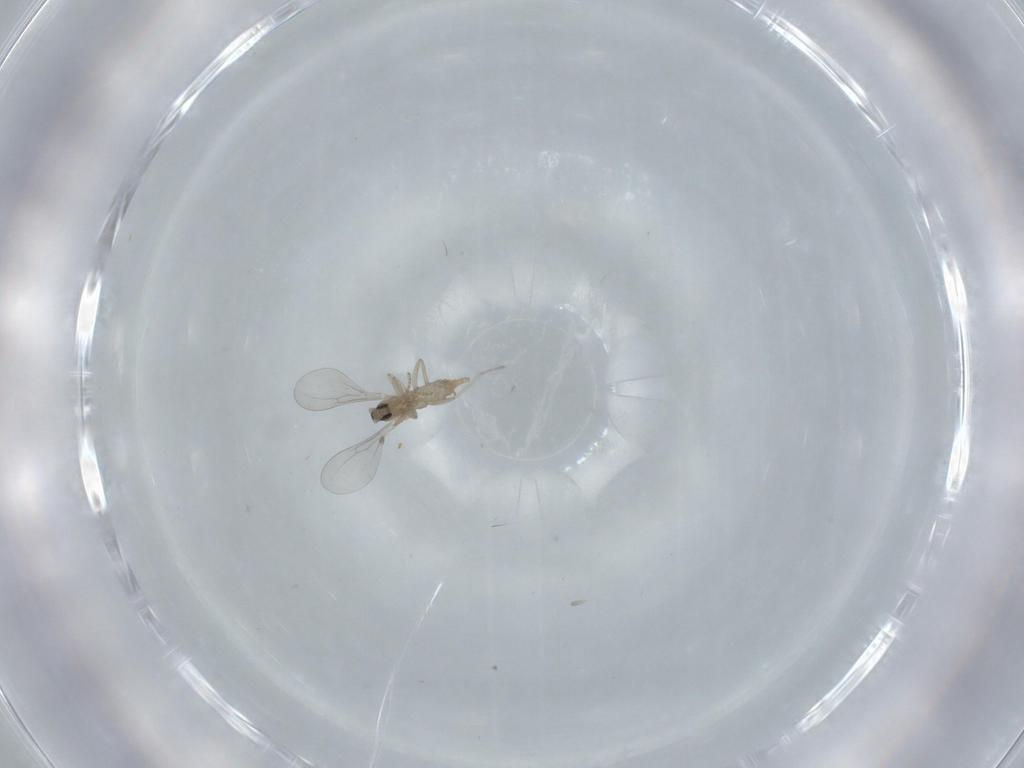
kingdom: Animalia
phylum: Arthropoda
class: Insecta
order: Diptera
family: Cecidomyiidae
